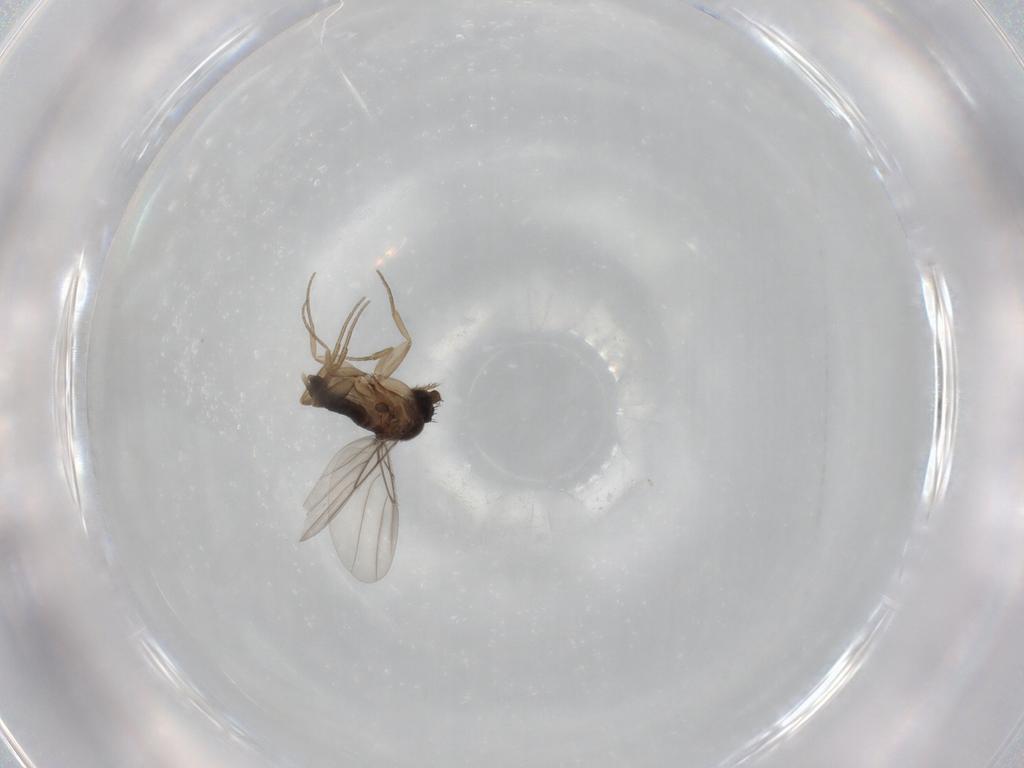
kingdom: Animalia
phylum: Arthropoda
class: Insecta
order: Diptera
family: Phoridae
